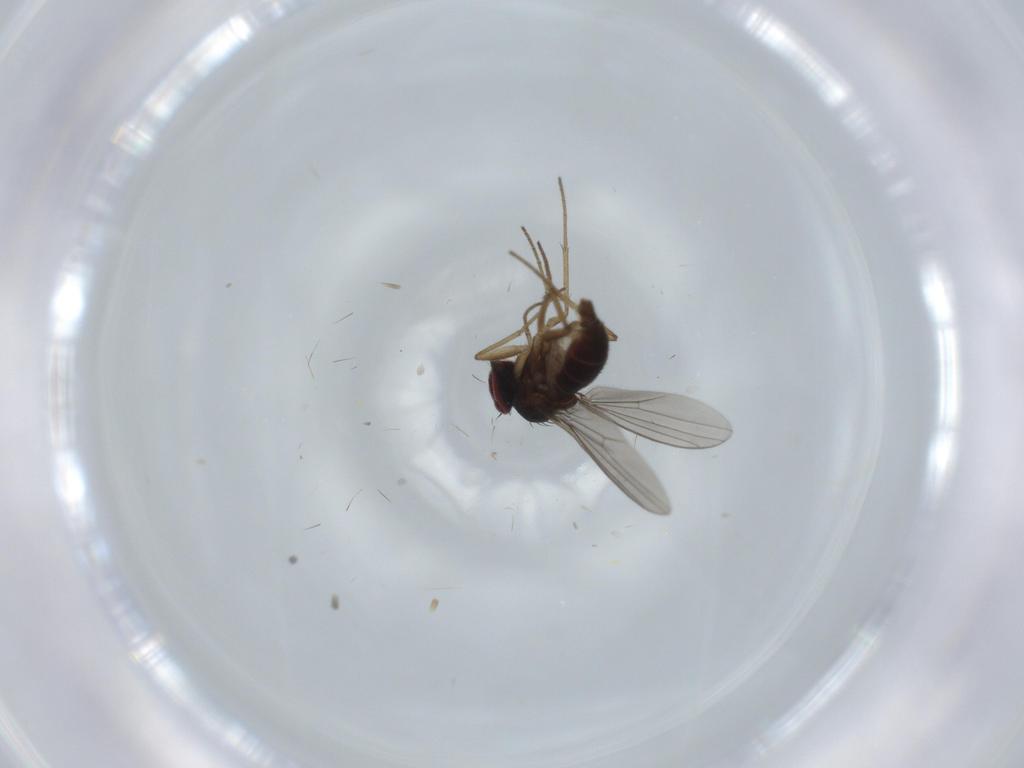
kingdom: Animalia
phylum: Arthropoda
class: Insecta
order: Diptera
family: Dolichopodidae
